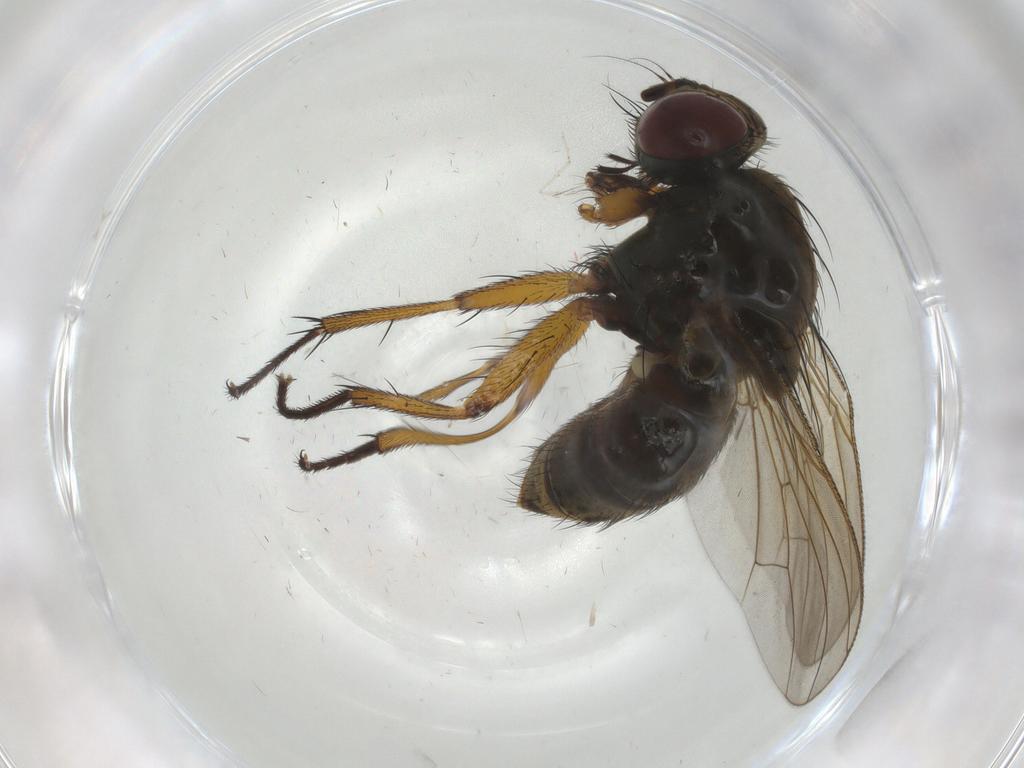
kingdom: Animalia
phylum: Arthropoda
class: Insecta
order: Diptera
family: Muscidae
